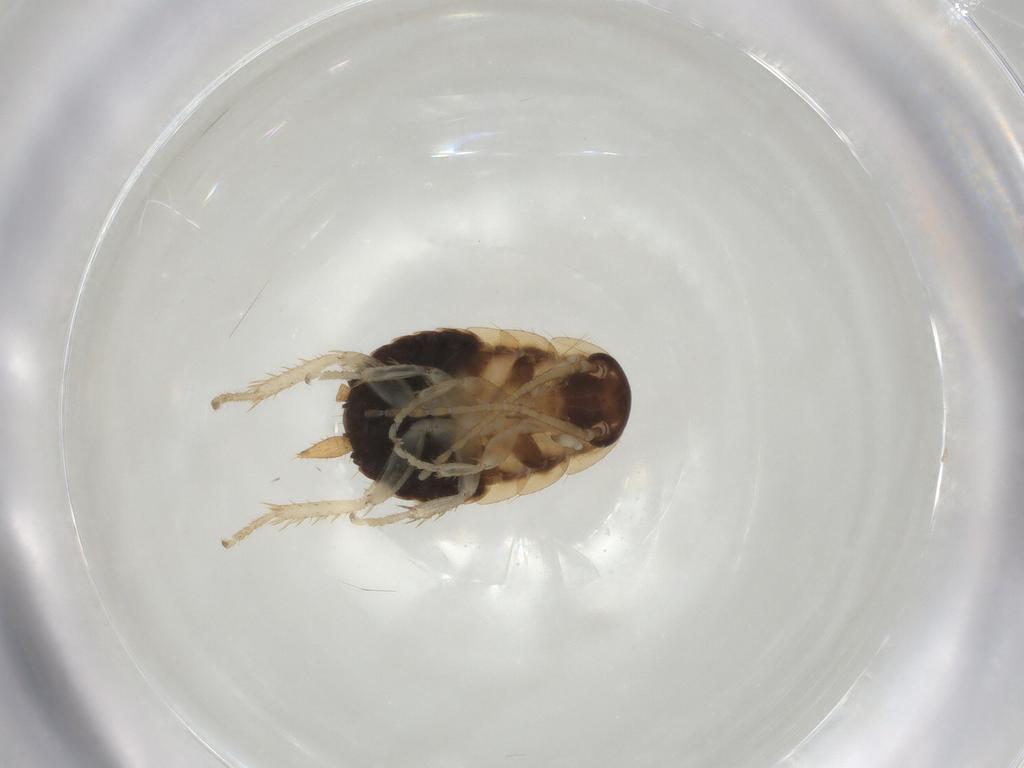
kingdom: Animalia
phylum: Arthropoda
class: Insecta
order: Blattodea
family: Ectobiidae
